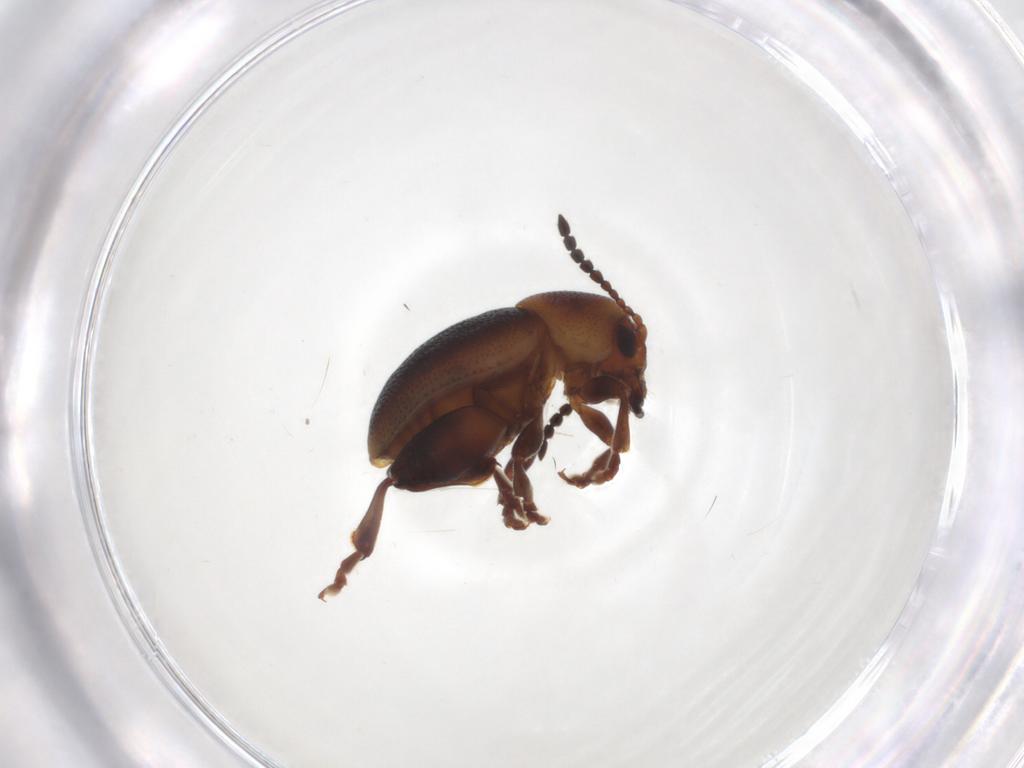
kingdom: Animalia
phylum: Arthropoda
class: Insecta
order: Coleoptera
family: Chrysomelidae
